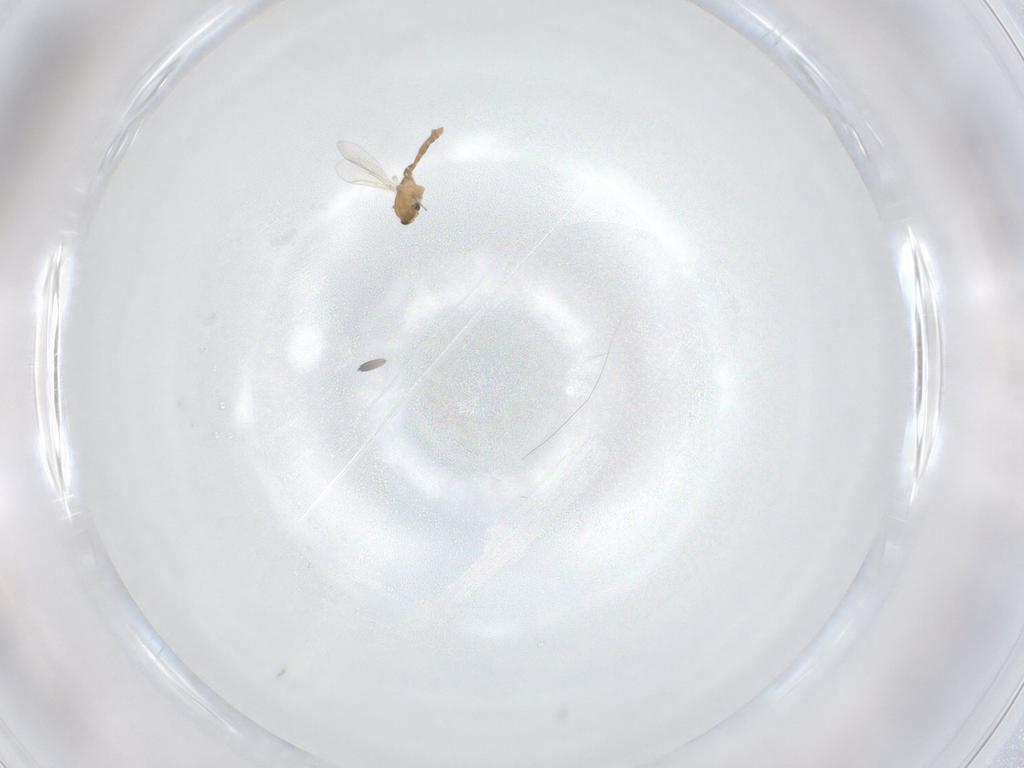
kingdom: Animalia
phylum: Arthropoda
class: Insecta
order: Diptera
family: Chironomidae
